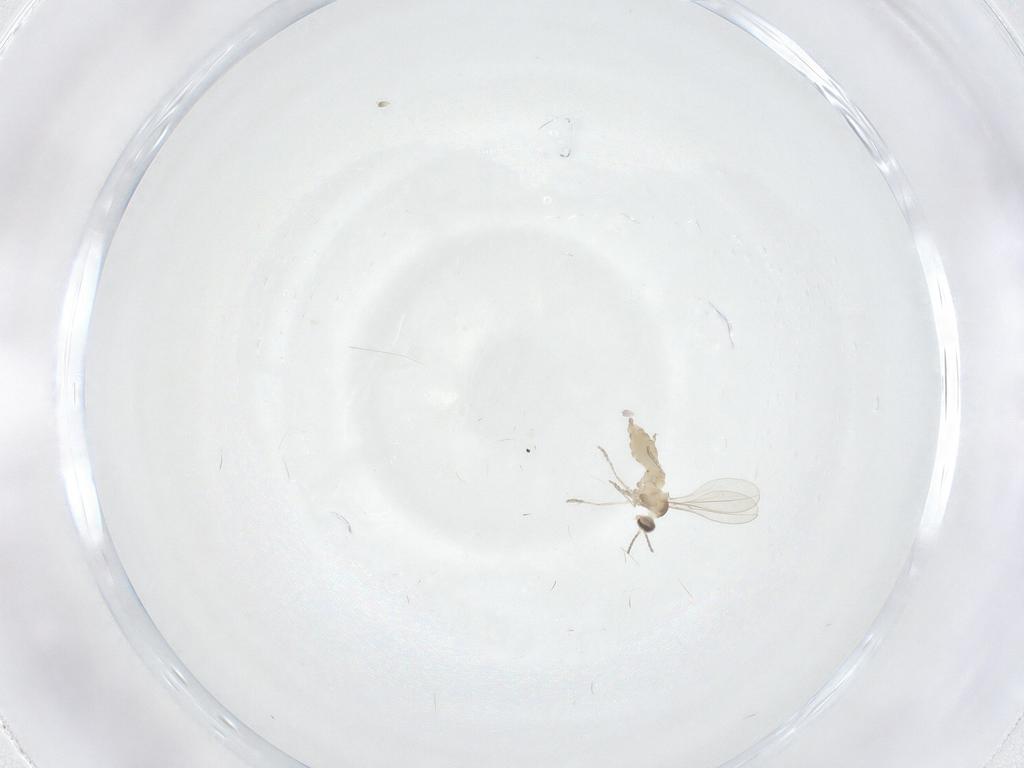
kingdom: Animalia
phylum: Arthropoda
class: Insecta
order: Diptera
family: Cecidomyiidae
